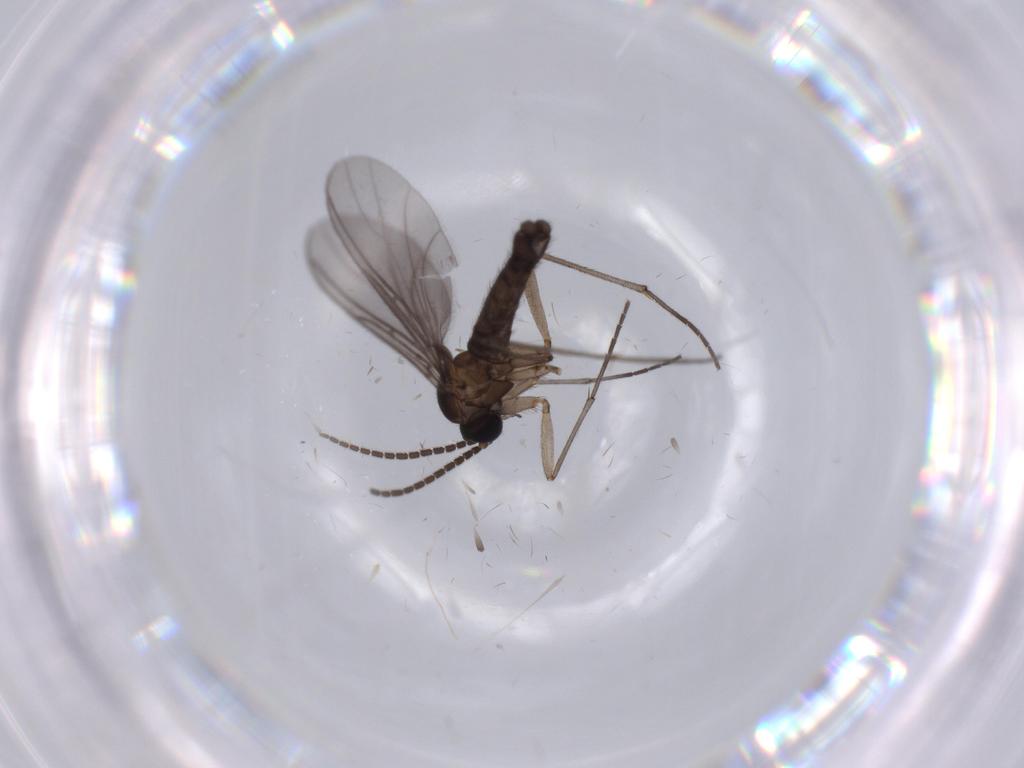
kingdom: Animalia
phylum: Arthropoda
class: Insecta
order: Diptera
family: Sciaridae
